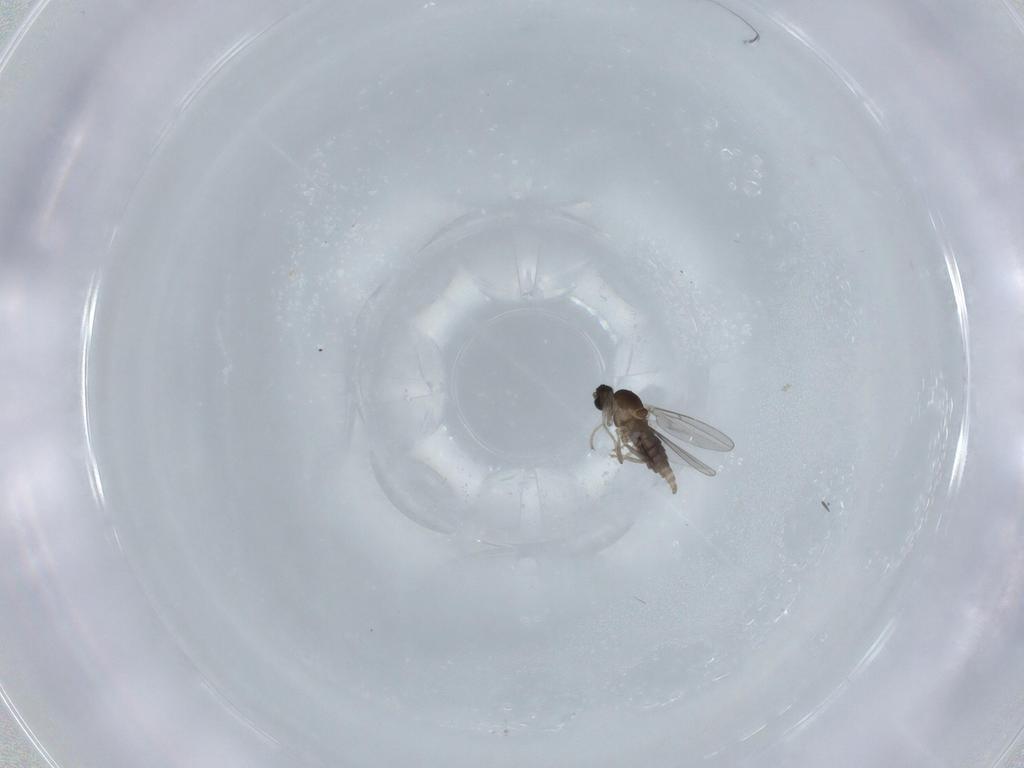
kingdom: Animalia
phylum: Arthropoda
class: Insecta
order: Diptera
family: Cecidomyiidae
